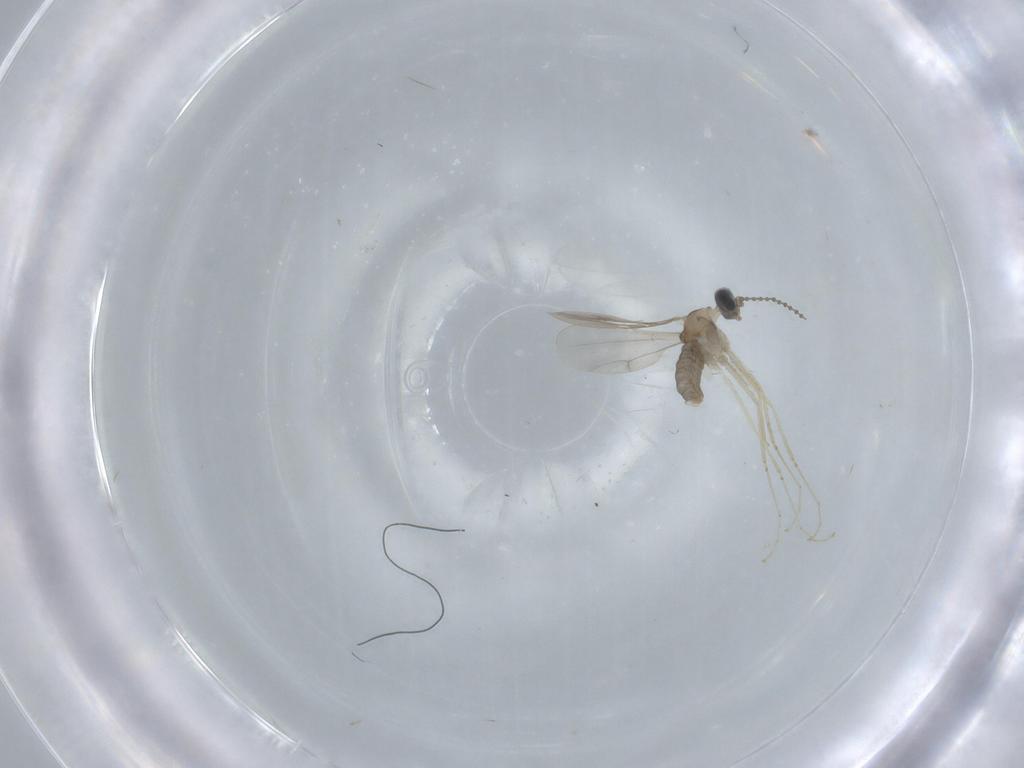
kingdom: Animalia
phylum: Arthropoda
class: Insecta
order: Diptera
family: Cecidomyiidae
